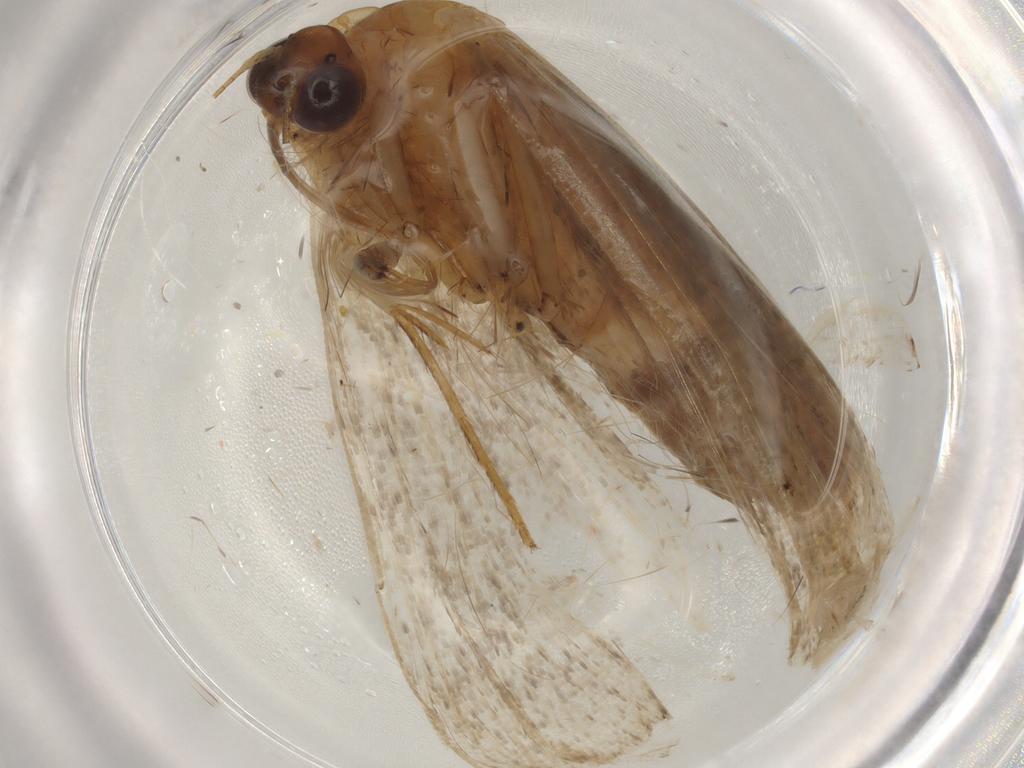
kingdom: Animalia
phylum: Arthropoda
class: Insecta
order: Lepidoptera
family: Erebidae
